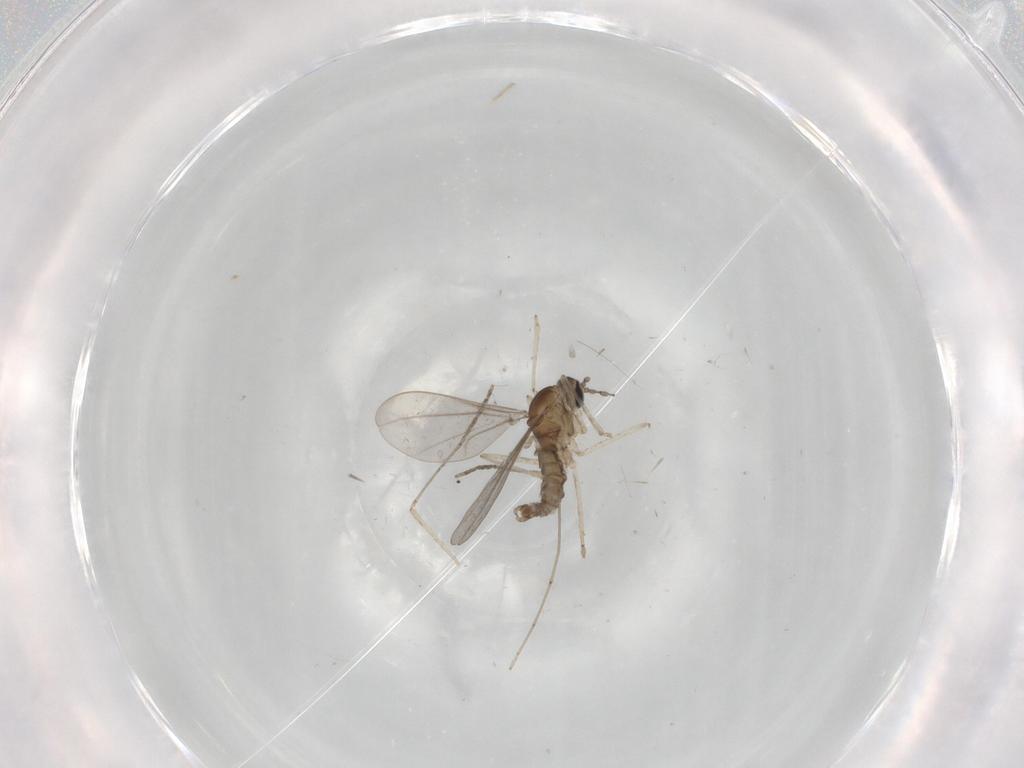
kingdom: Animalia
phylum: Arthropoda
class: Insecta
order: Diptera
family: Cecidomyiidae
